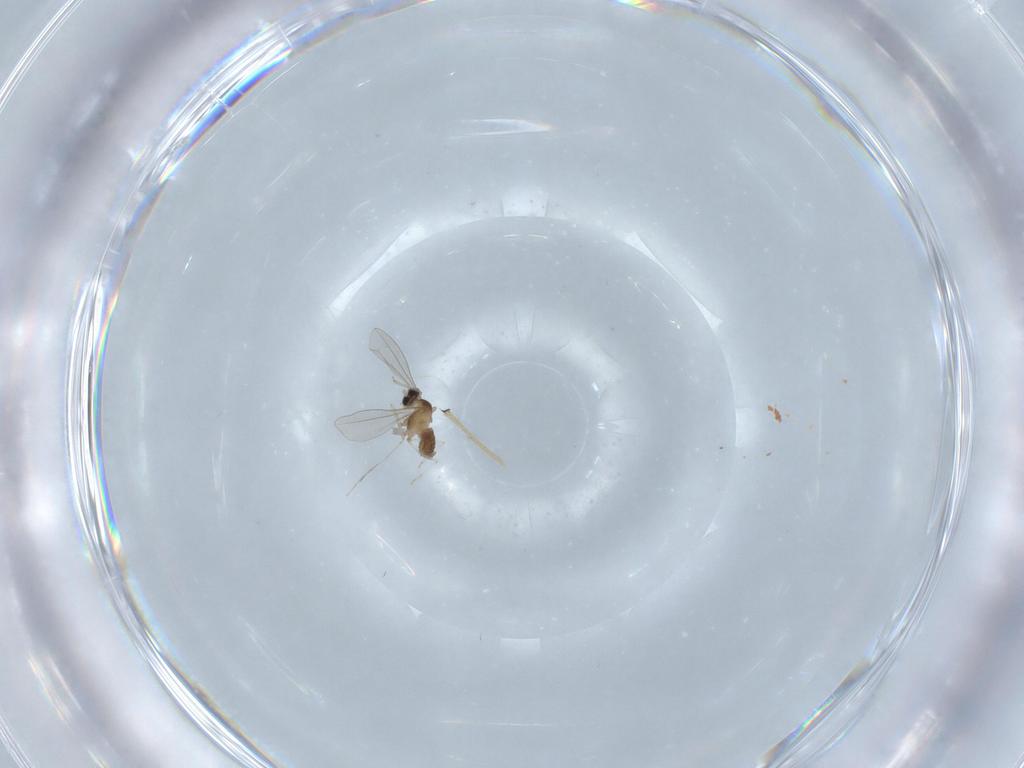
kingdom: Animalia
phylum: Arthropoda
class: Insecta
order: Diptera
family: Cecidomyiidae
